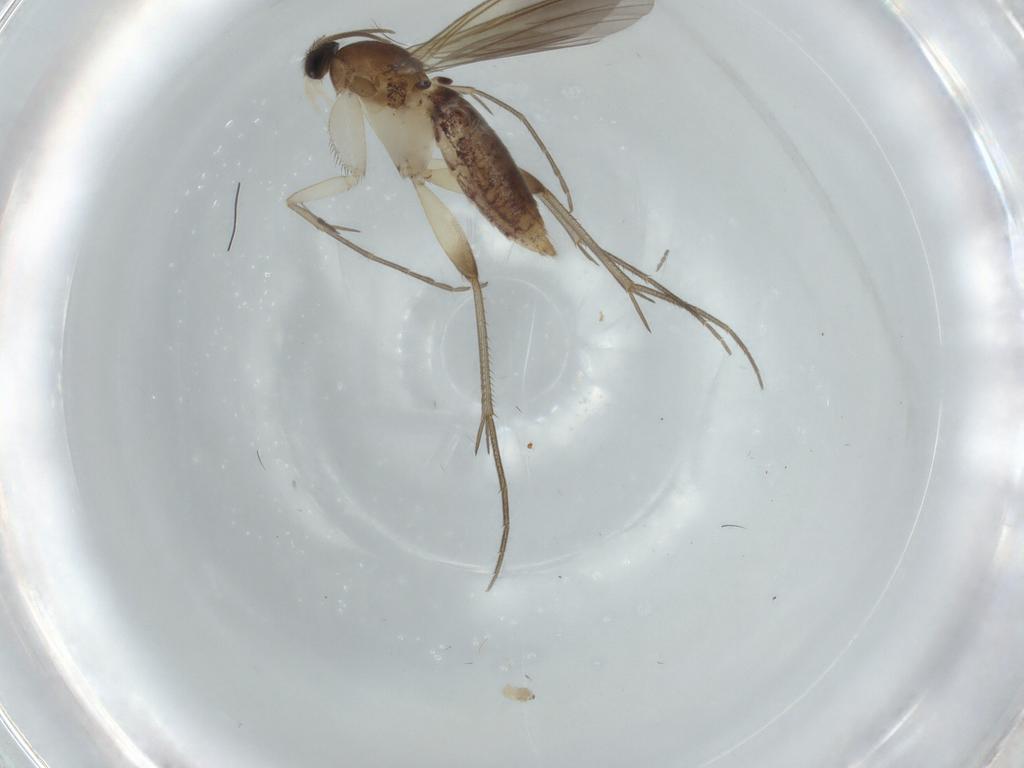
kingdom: Animalia
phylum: Arthropoda
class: Insecta
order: Diptera
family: Mycetophilidae
